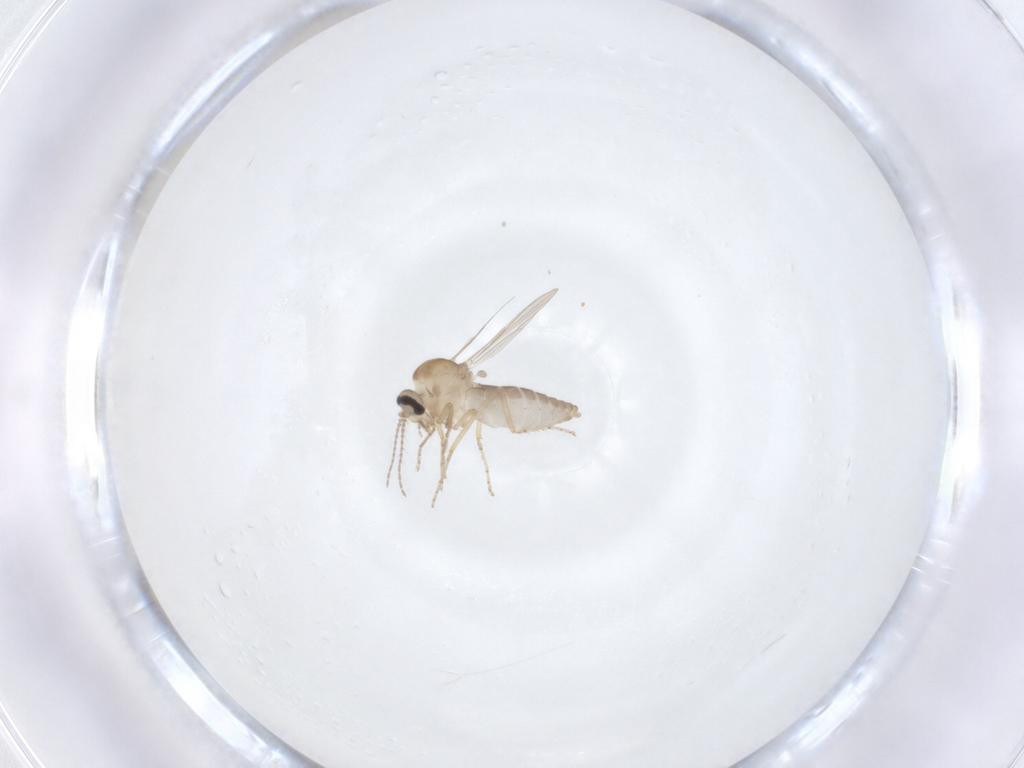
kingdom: Animalia
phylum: Arthropoda
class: Insecta
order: Diptera
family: Ceratopogonidae
